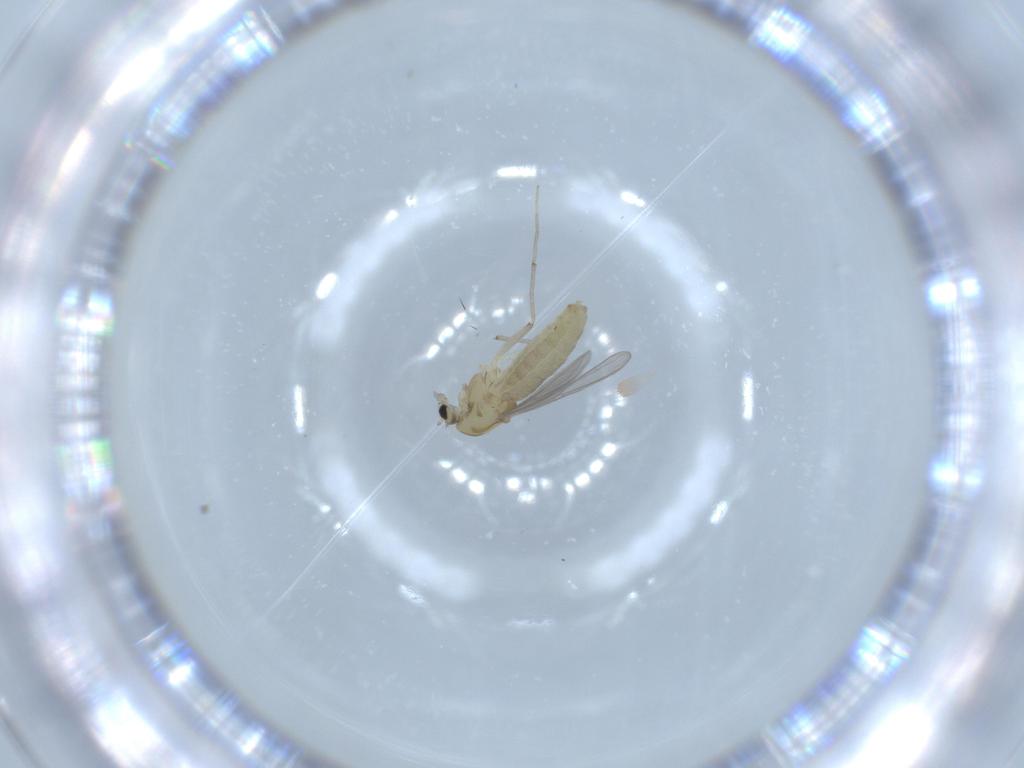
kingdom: Animalia
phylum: Arthropoda
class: Insecta
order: Diptera
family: Chironomidae
